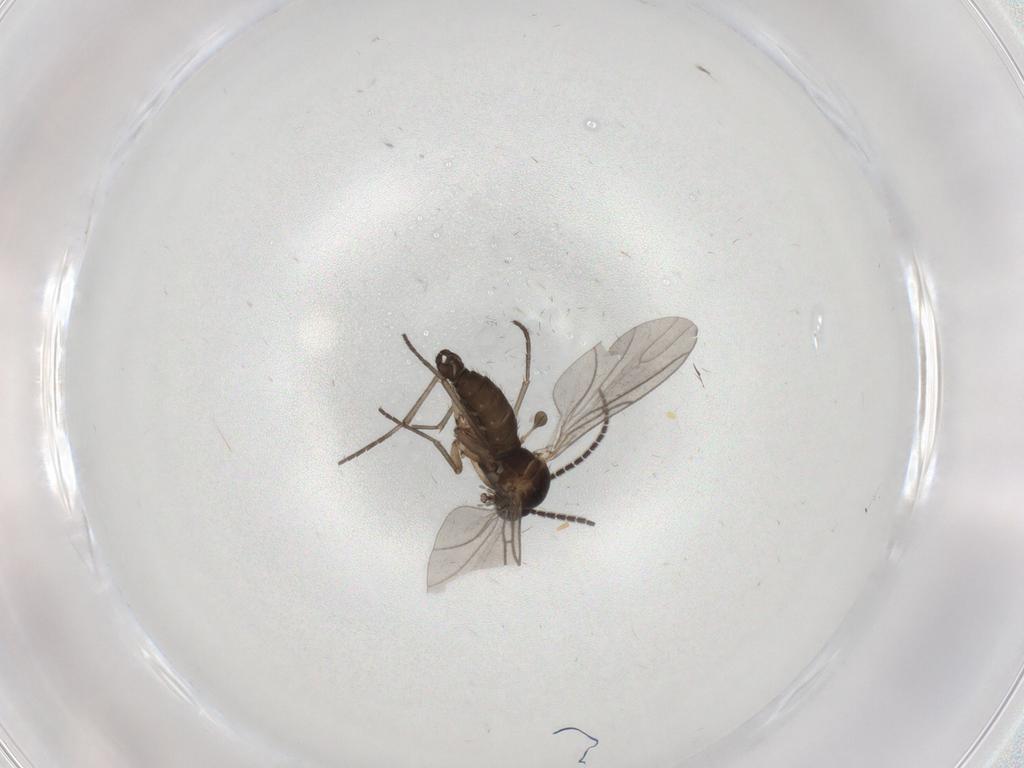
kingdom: Animalia
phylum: Arthropoda
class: Insecta
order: Diptera
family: Sciaridae
